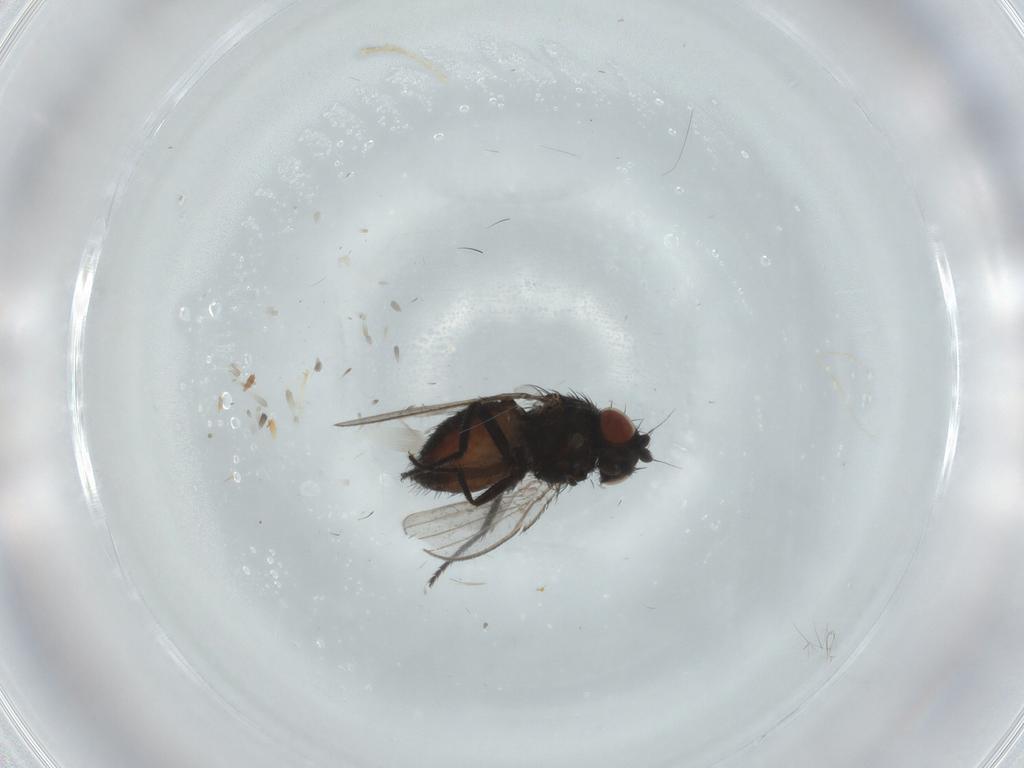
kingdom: Animalia
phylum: Arthropoda
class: Insecta
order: Diptera
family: Milichiidae
